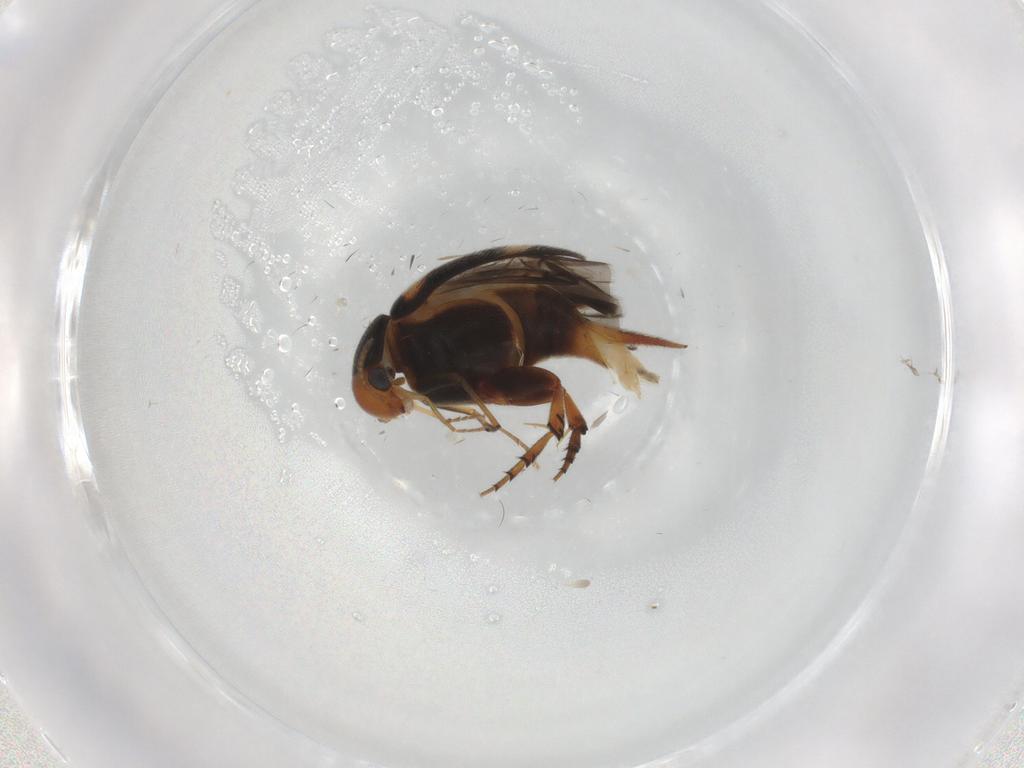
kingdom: Animalia
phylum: Arthropoda
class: Insecta
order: Coleoptera
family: Mordellidae
